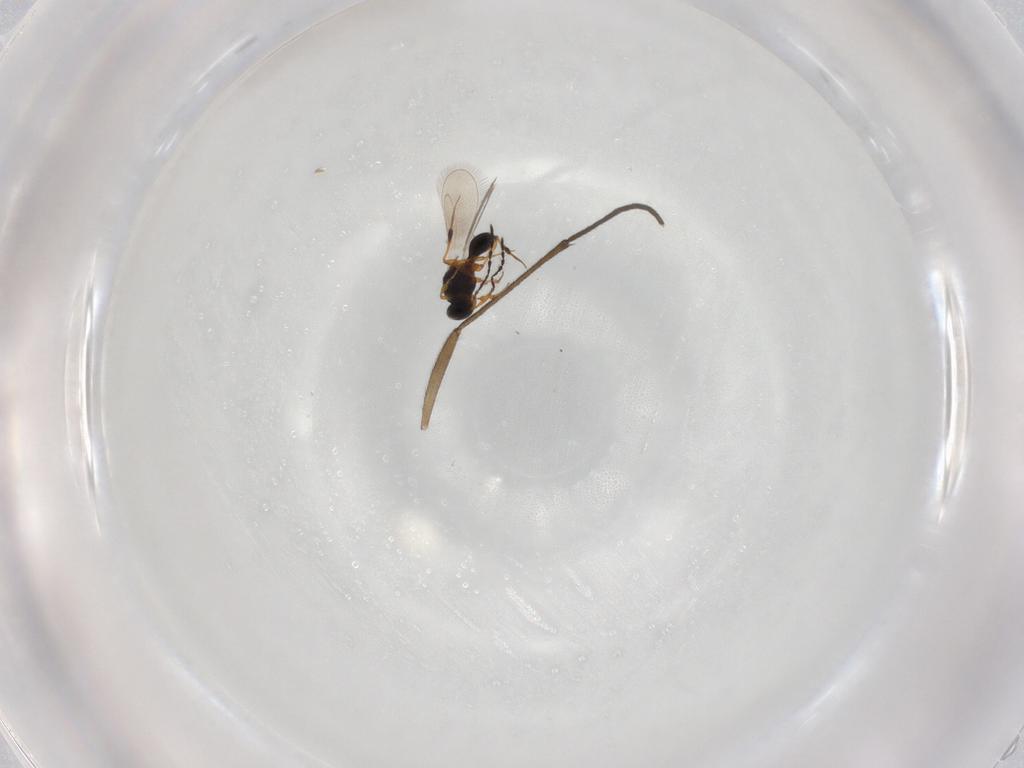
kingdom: Animalia
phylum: Arthropoda
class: Insecta
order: Hymenoptera
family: Platygastridae
